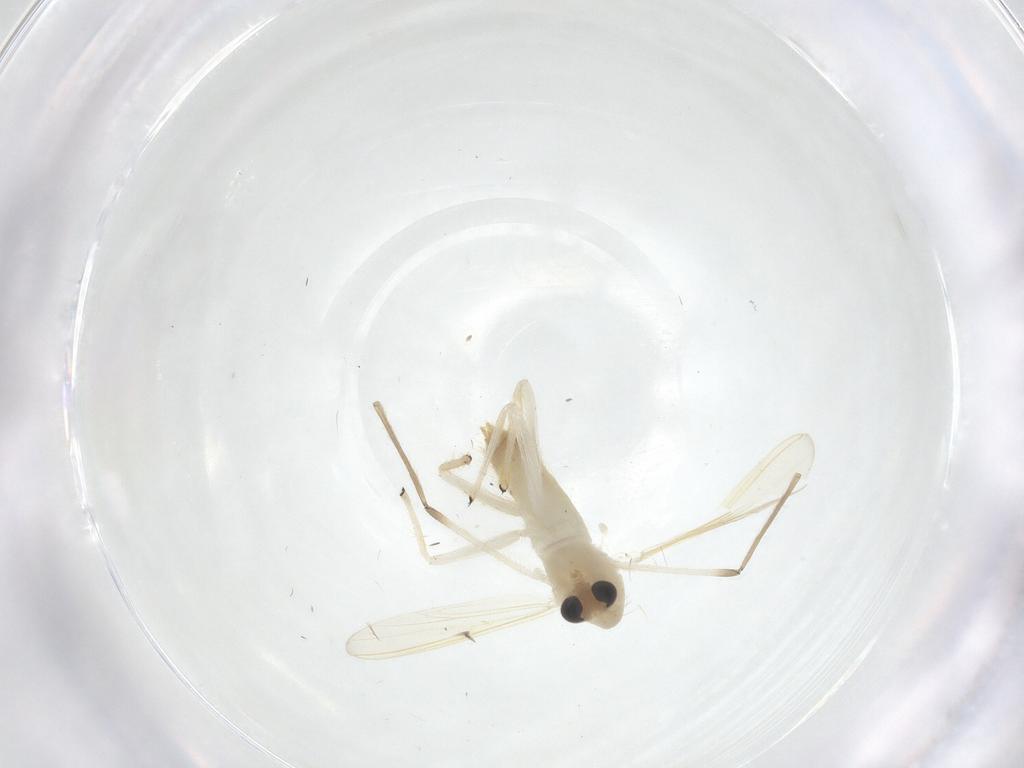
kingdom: Animalia
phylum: Arthropoda
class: Insecta
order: Diptera
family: Chironomidae
